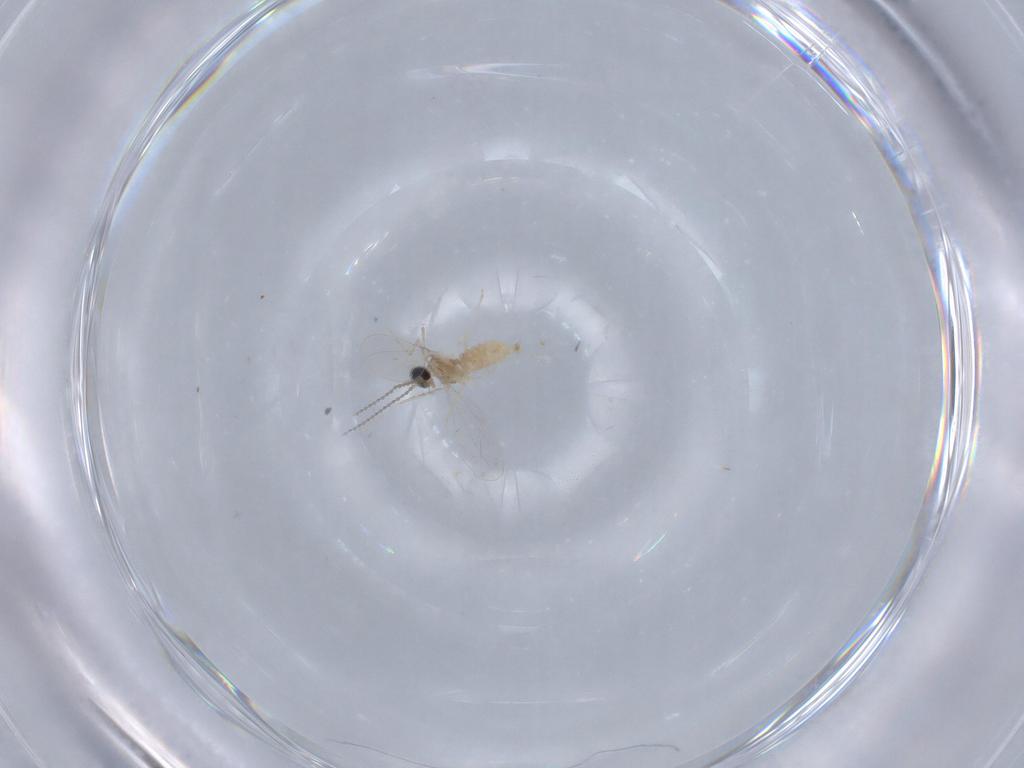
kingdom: Animalia
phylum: Arthropoda
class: Insecta
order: Diptera
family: Cecidomyiidae
